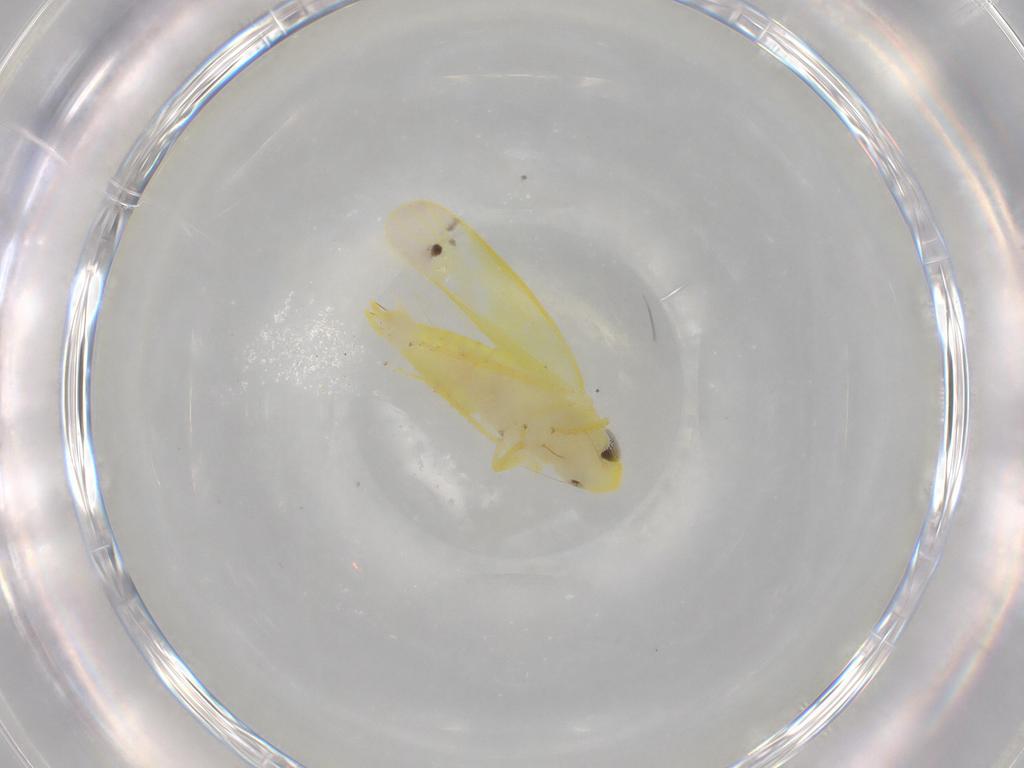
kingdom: Animalia
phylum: Arthropoda
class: Insecta
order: Hemiptera
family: Cicadellidae
